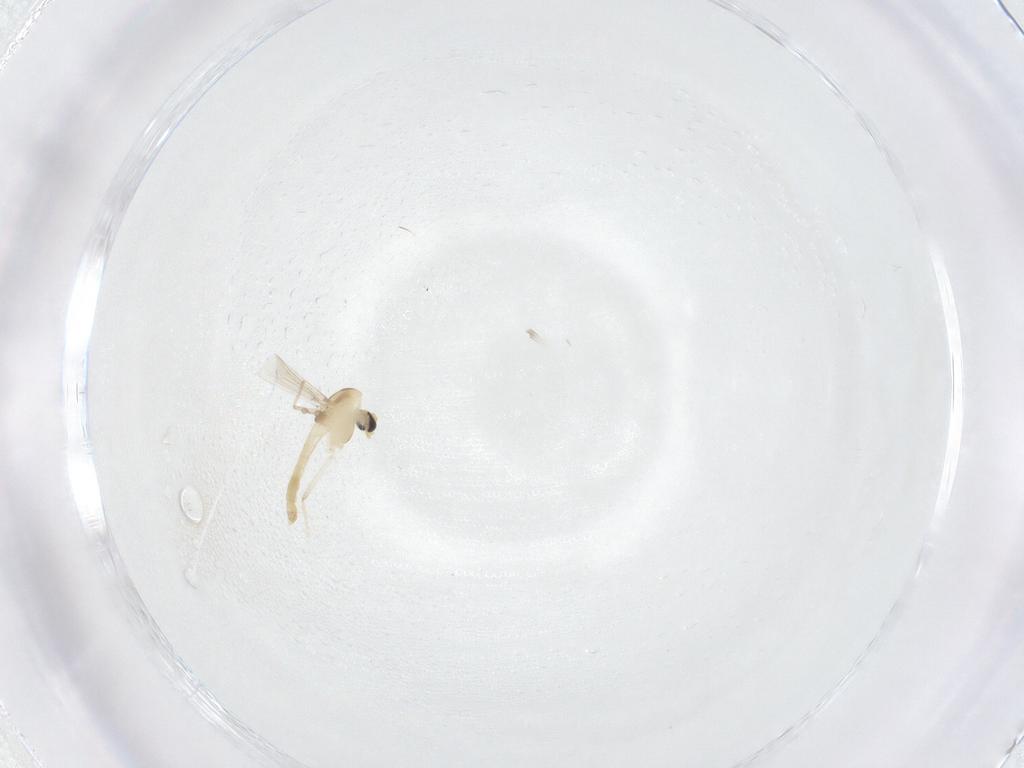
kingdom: Animalia
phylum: Arthropoda
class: Insecta
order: Diptera
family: Chironomidae
